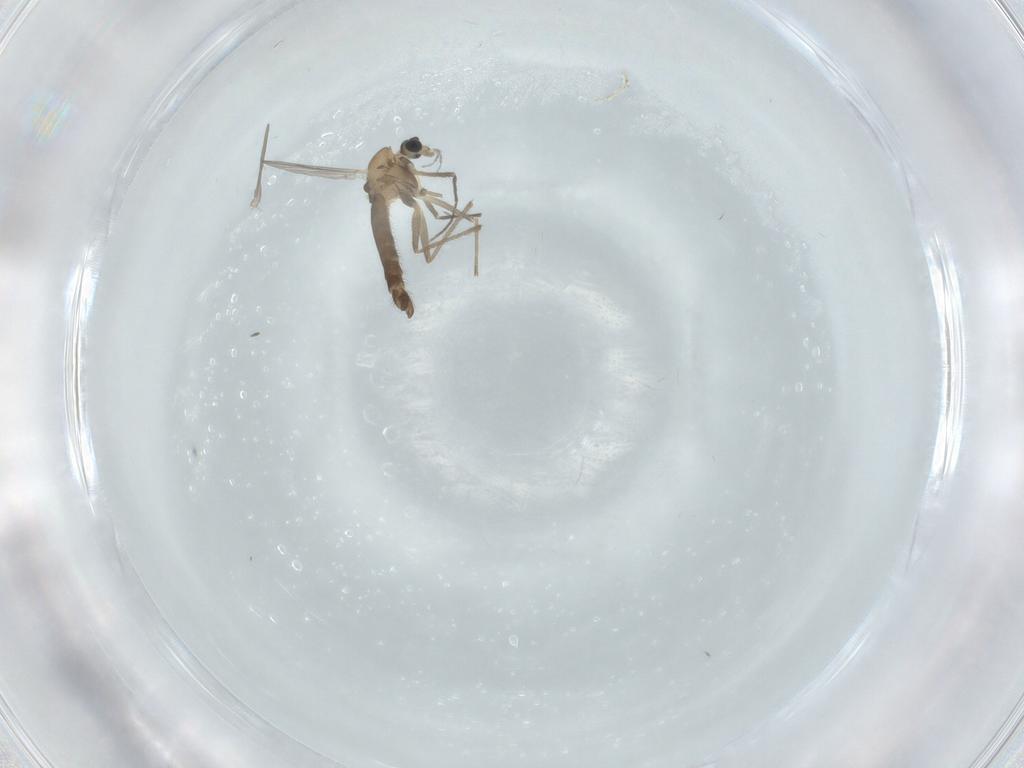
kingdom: Animalia
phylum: Arthropoda
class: Insecta
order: Diptera
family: Chironomidae
